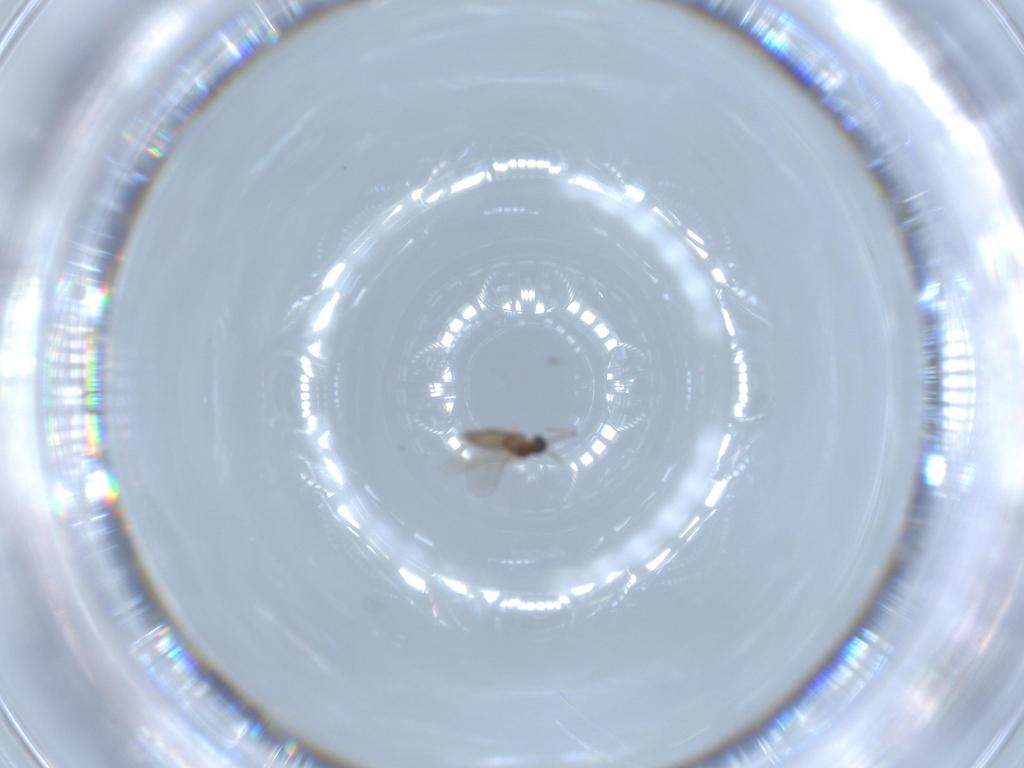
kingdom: Animalia
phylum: Arthropoda
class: Insecta
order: Diptera
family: Cecidomyiidae
